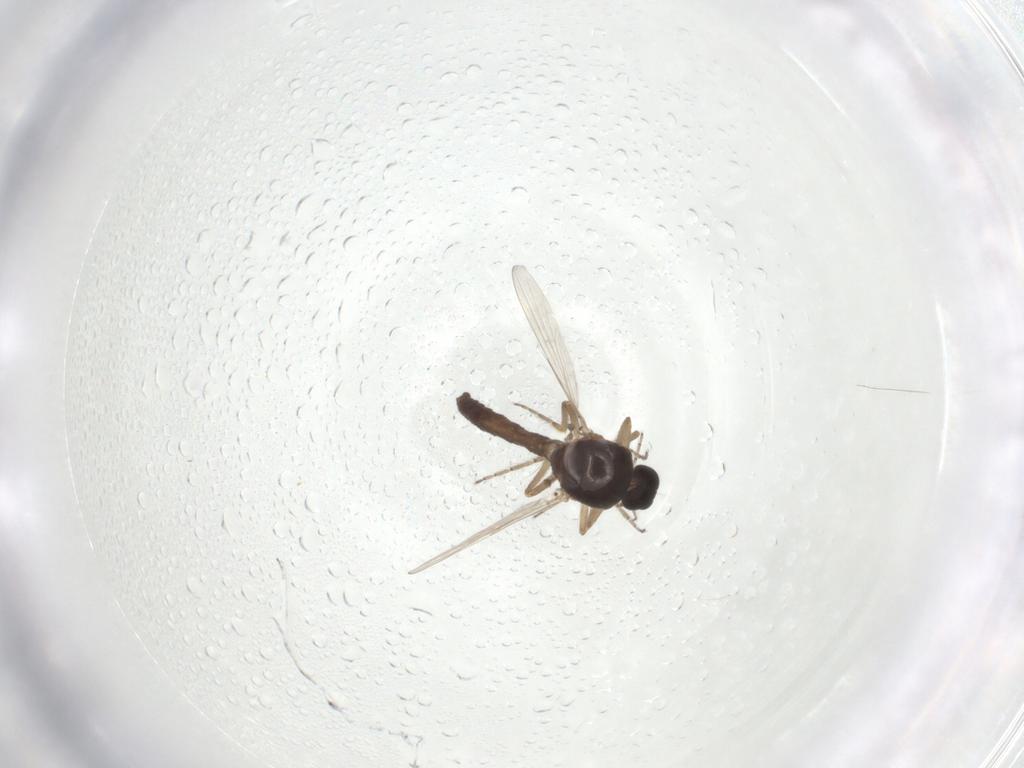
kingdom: Animalia
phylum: Arthropoda
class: Insecta
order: Diptera
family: Ceratopogonidae
